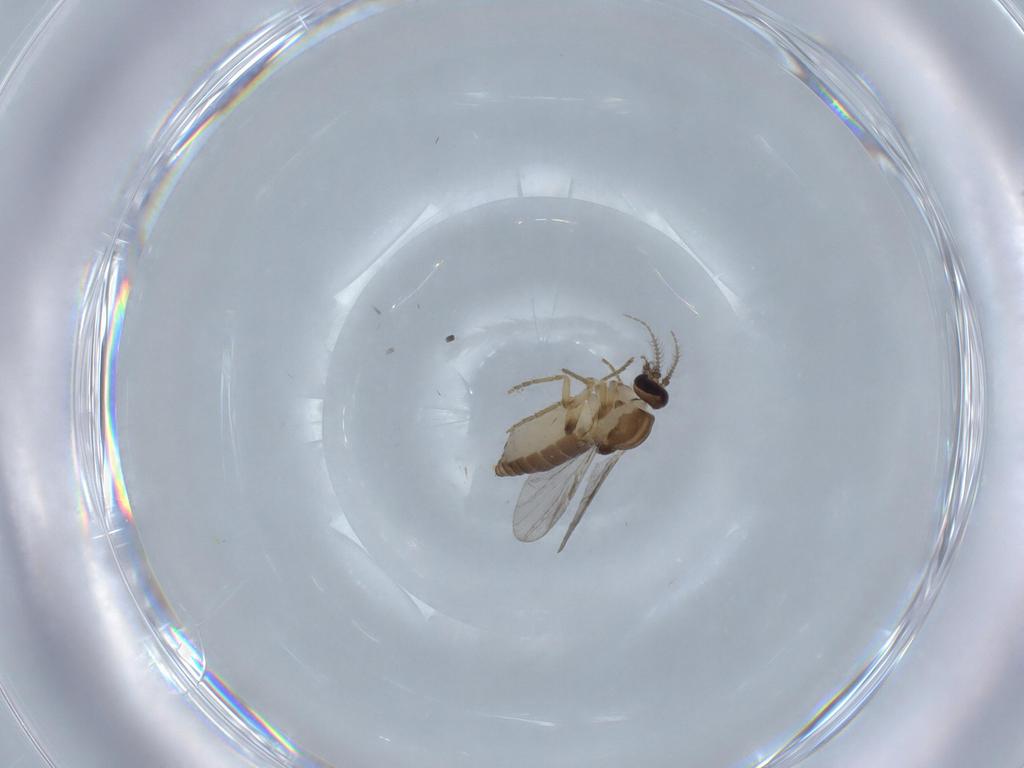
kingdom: Animalia
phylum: Arthropoda
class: Insecta
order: Diptera
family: Ceratopogonidae
